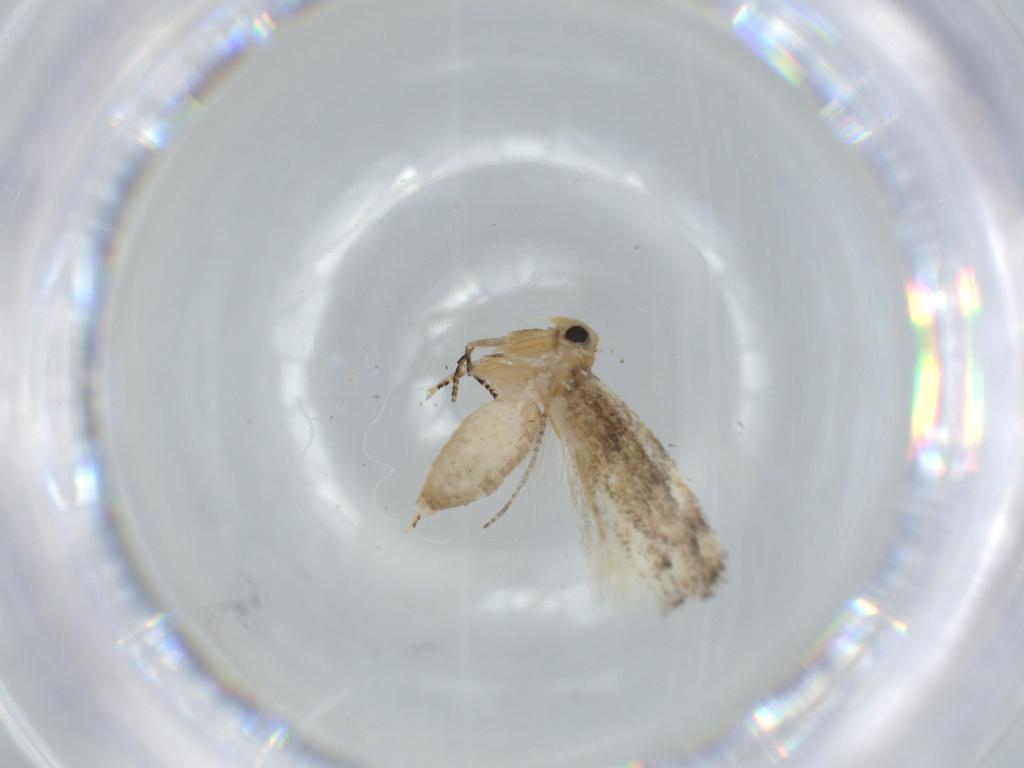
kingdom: Animalia
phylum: Arthropoda
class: Insecta
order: Lepidoptera
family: Bucculatricidae
